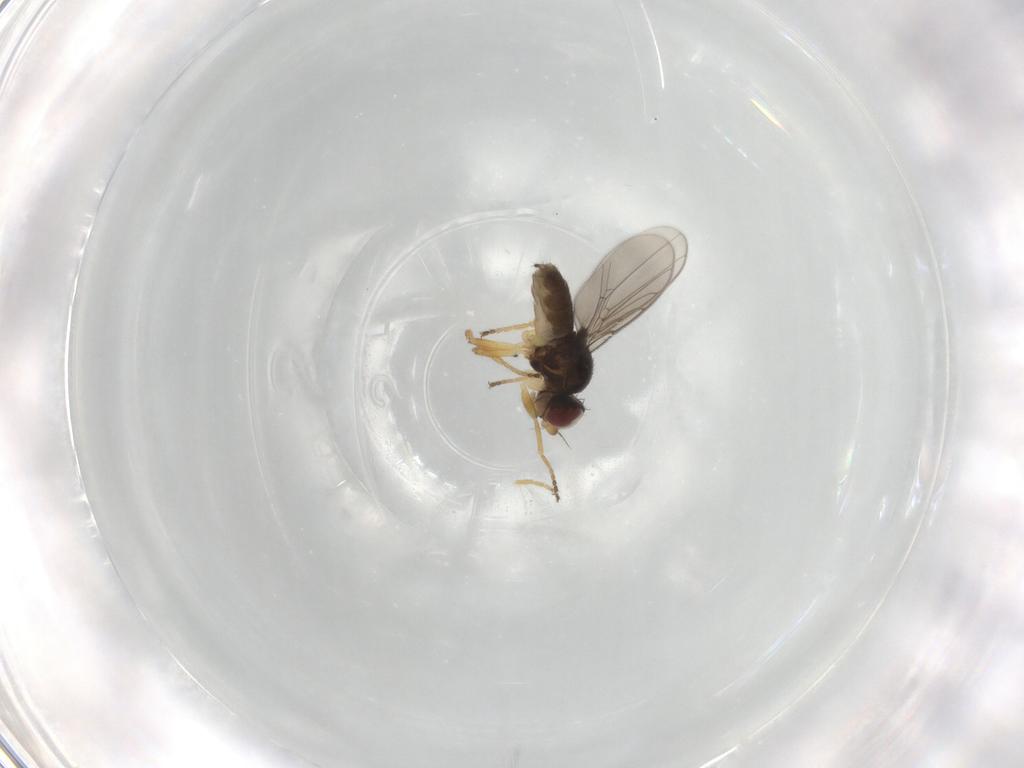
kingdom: Animalia
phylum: Arthropoda
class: Insecta
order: Diptera
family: Chloropidae
